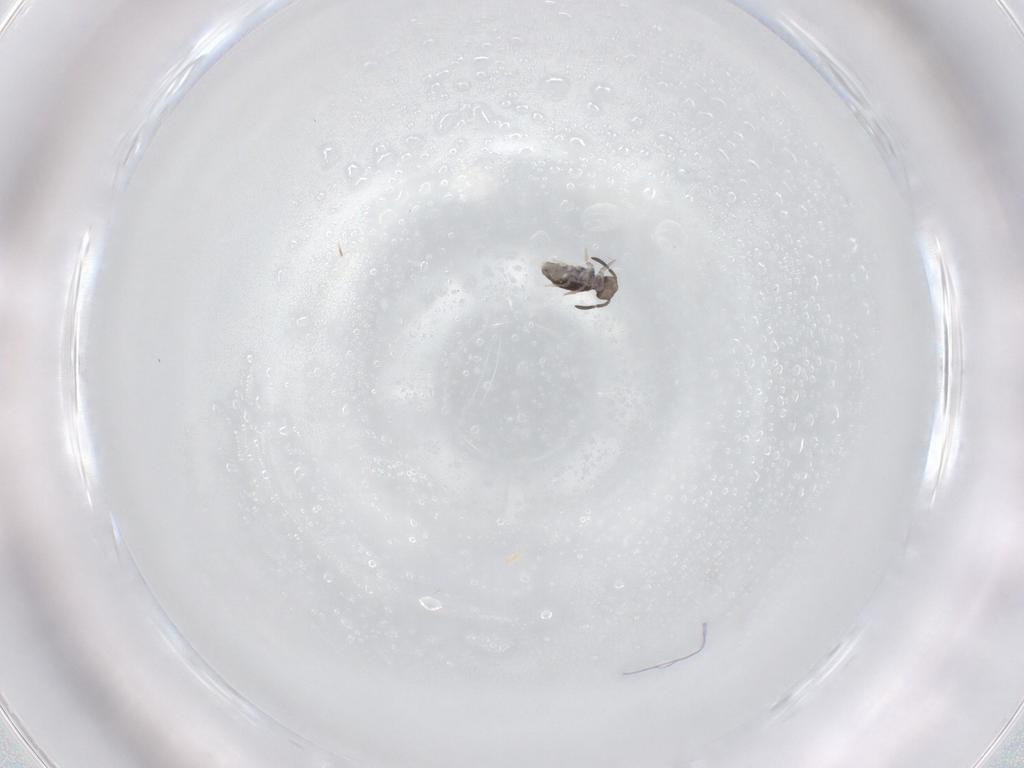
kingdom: Animalia
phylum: Arthropoda
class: Collembola
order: Symphypleona
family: Katiannidae
